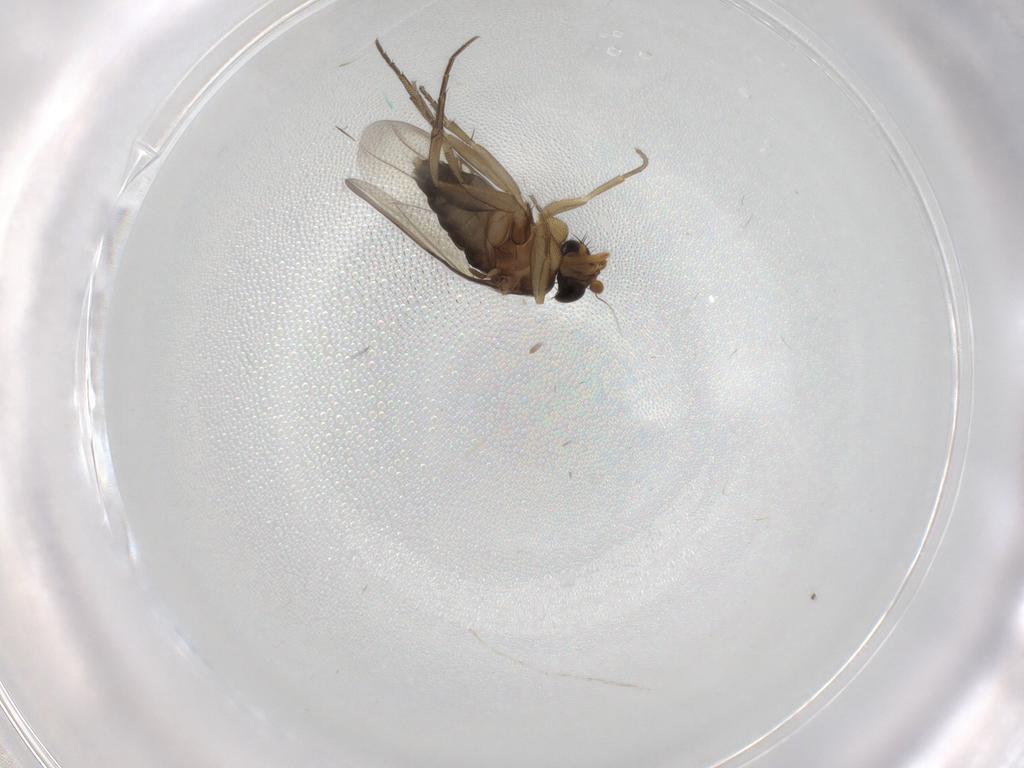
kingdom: Animalia
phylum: Arthropoda
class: Insecta
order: Diptera
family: Phoridae
